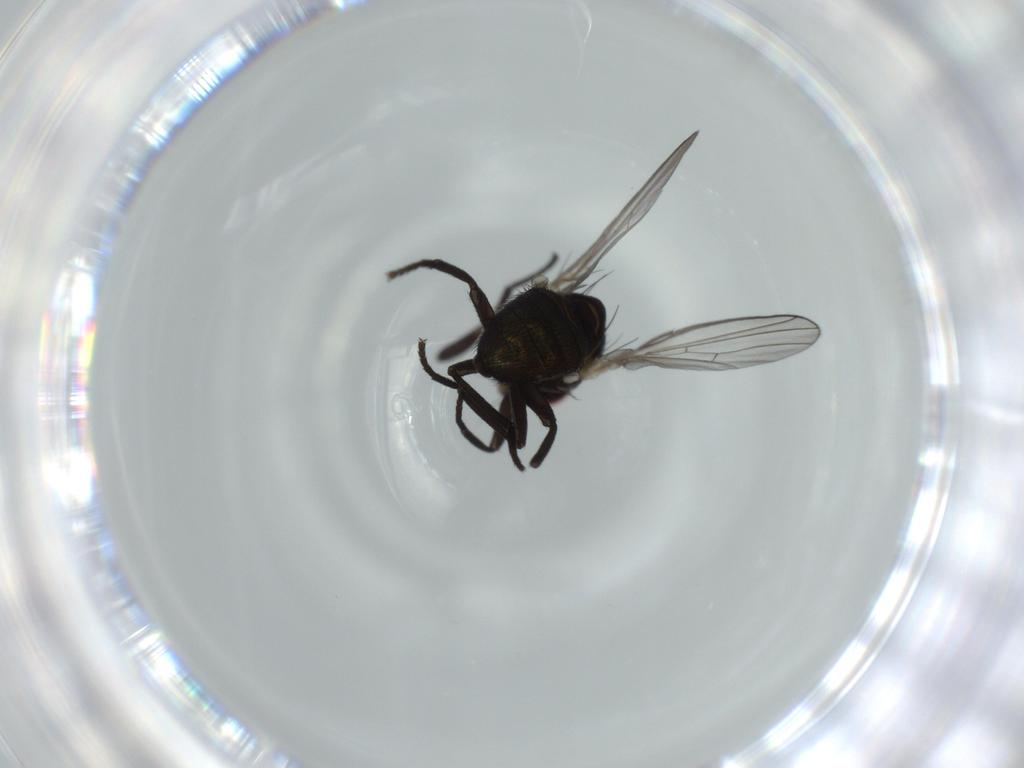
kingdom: Animalia
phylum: Arthropoda
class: Insecta
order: Diptera
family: Agromyzidae
